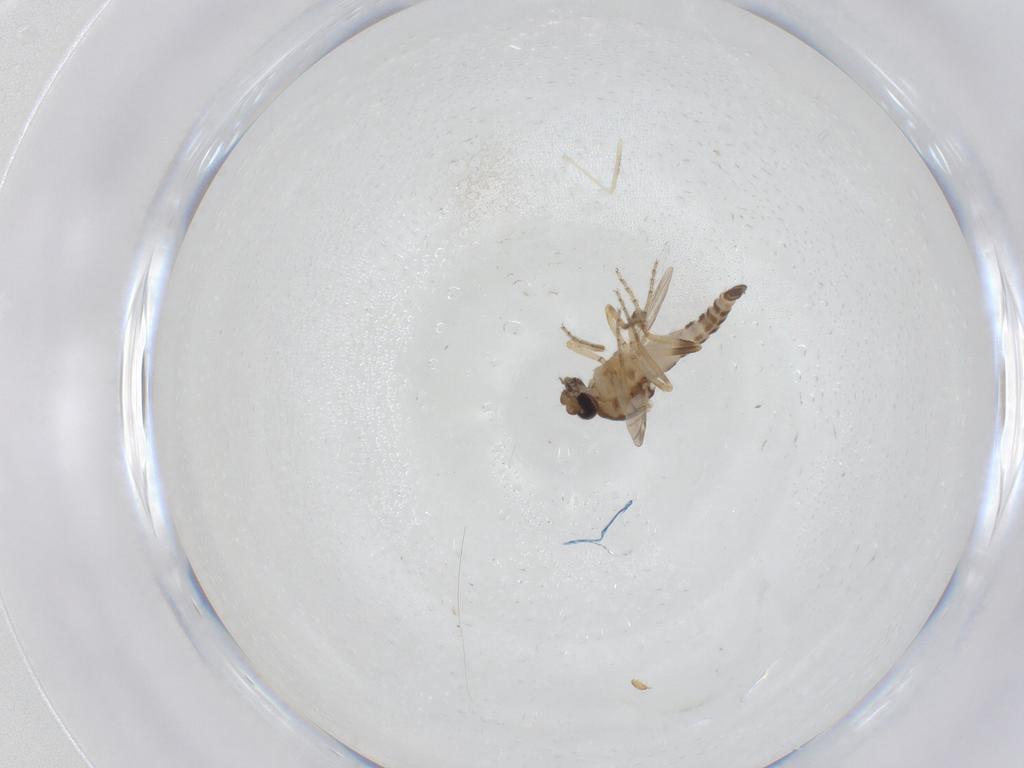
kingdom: Animalia
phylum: Arthropoda
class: Insecta
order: Diptera
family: Ceratopogonidae
